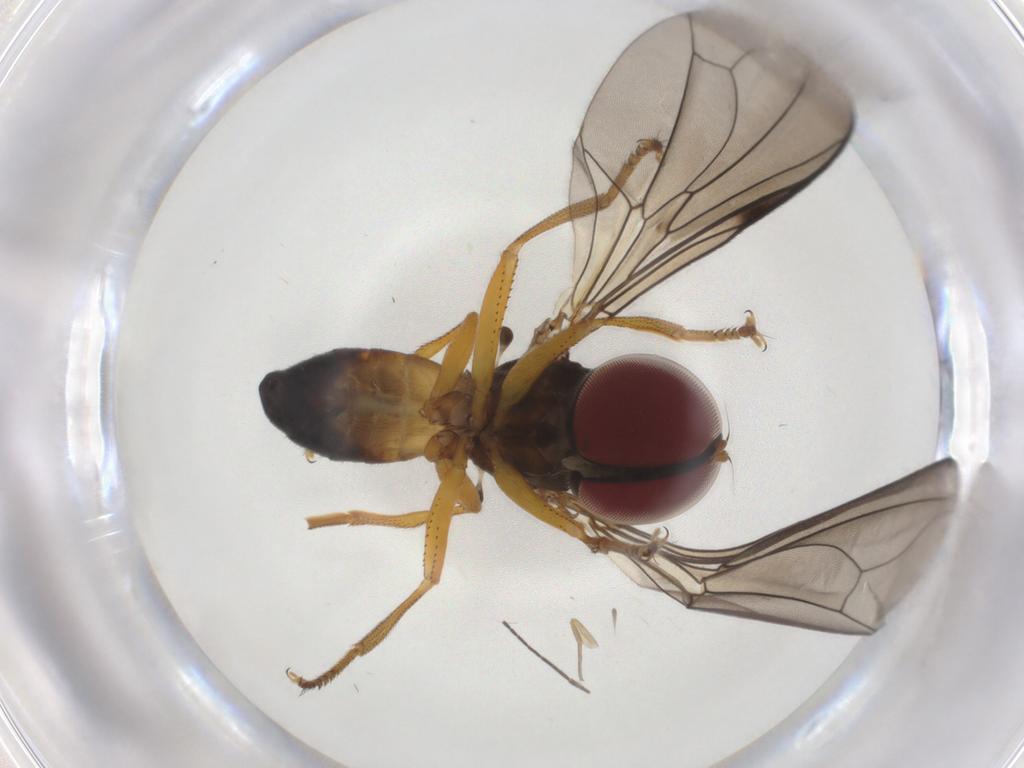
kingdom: Animalia
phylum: Arthropoda
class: Insecta
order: Diptera
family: Pipunculidae
